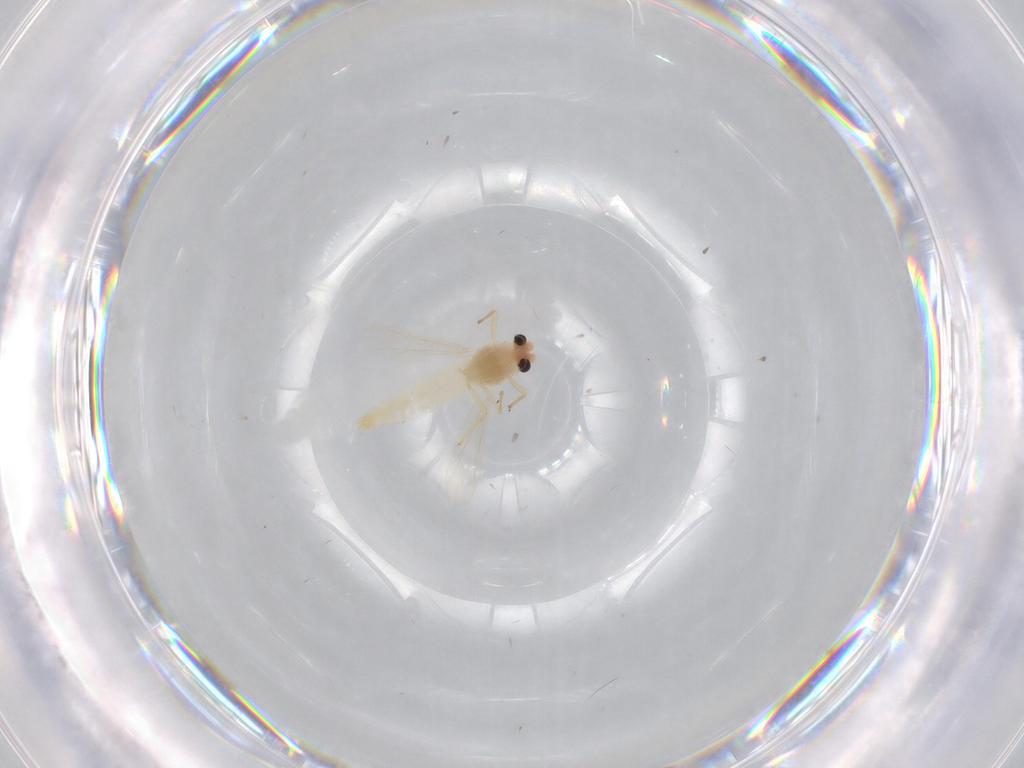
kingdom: Animalia
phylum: Arthropoda
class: Insecta
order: Diptera
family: Chironomidae
